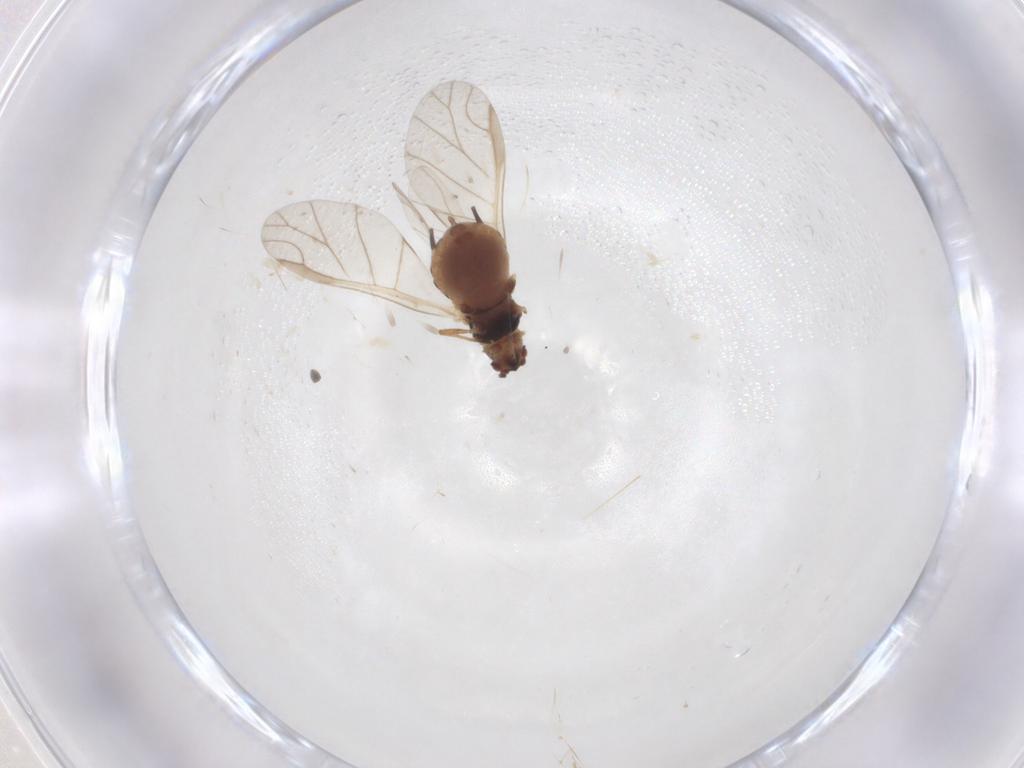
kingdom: Animalia
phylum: Arthropoda
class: Insecta
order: Hemiptera
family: Aphididae
